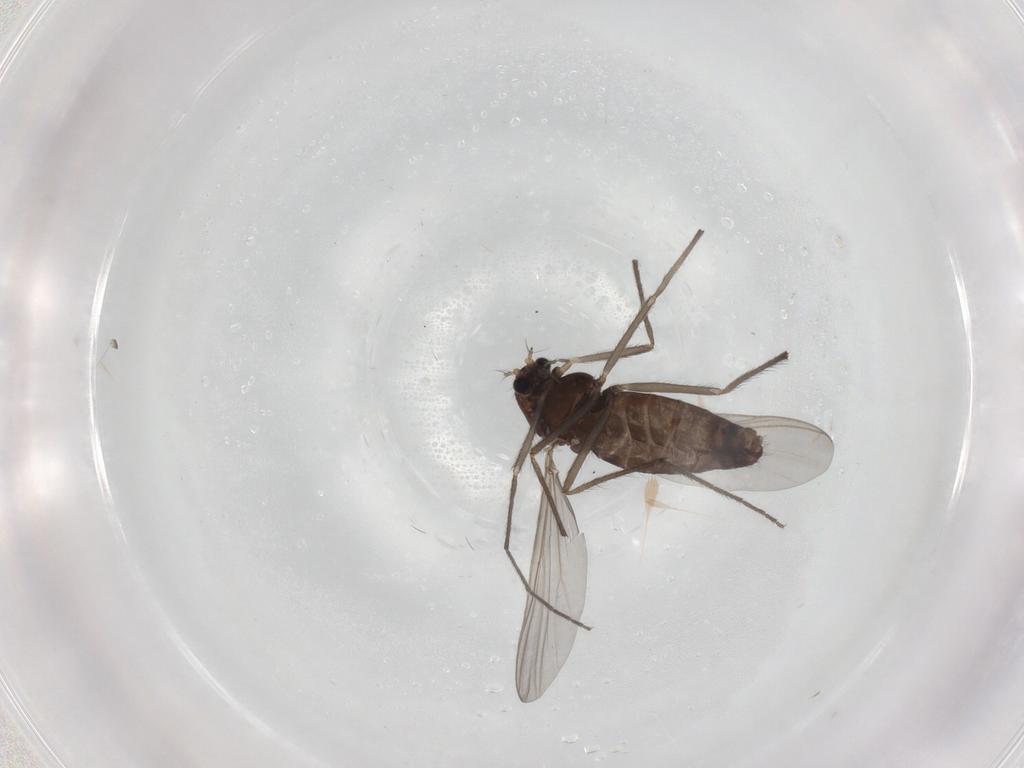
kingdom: Animalia
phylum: Arthropoda
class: Insecta
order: Diptera
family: Chironomidae
